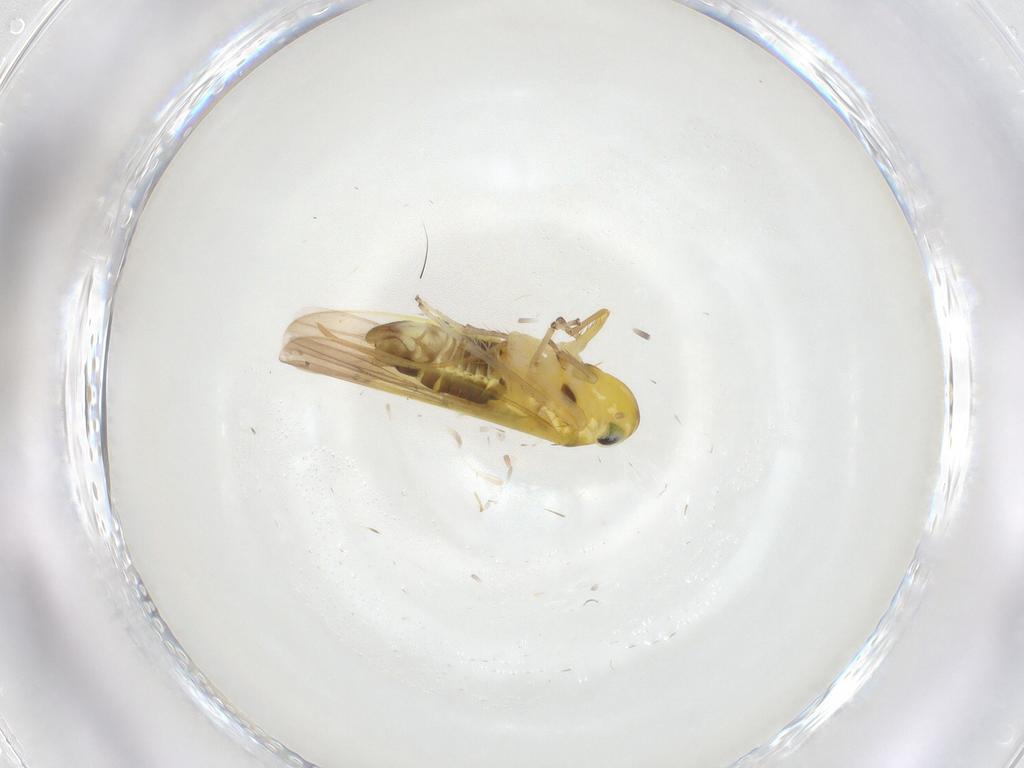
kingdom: Animalia
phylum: Arthropoda
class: Insecta
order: Hemiptera
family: Cicadellidae
